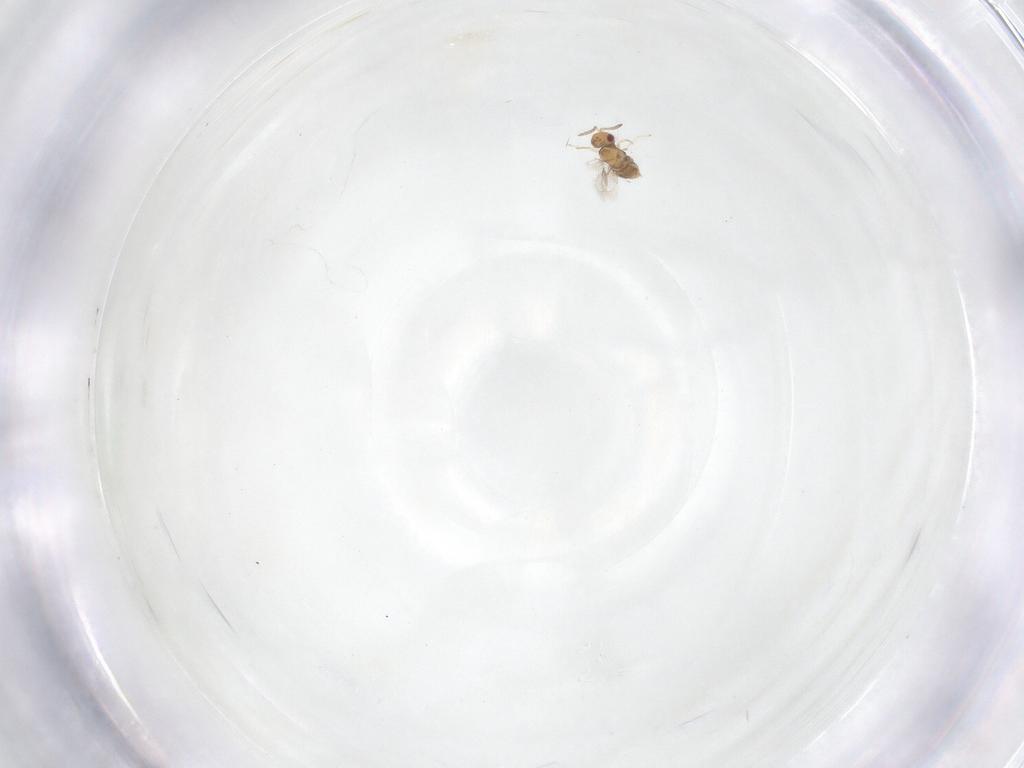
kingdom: Animalia
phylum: Arthropoda
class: Insecta
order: Hymenoptera
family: Aphelinidae
